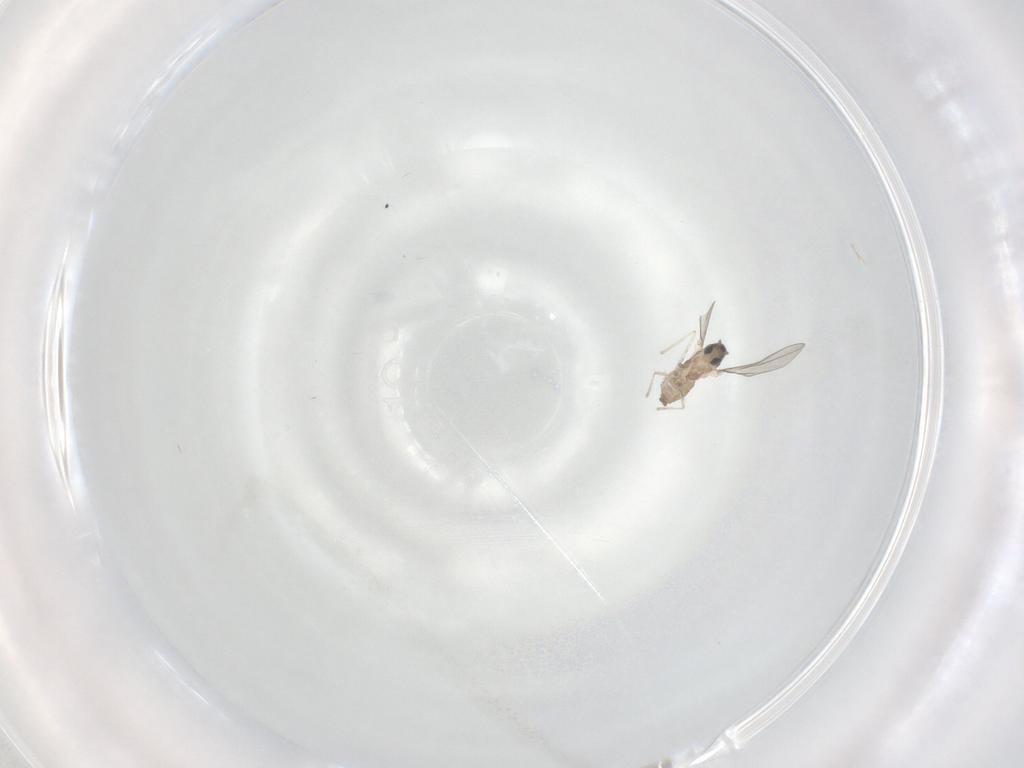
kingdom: Animalia
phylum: Arthropoda
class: Insecta
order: Diptera
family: Cecidomyiidae
